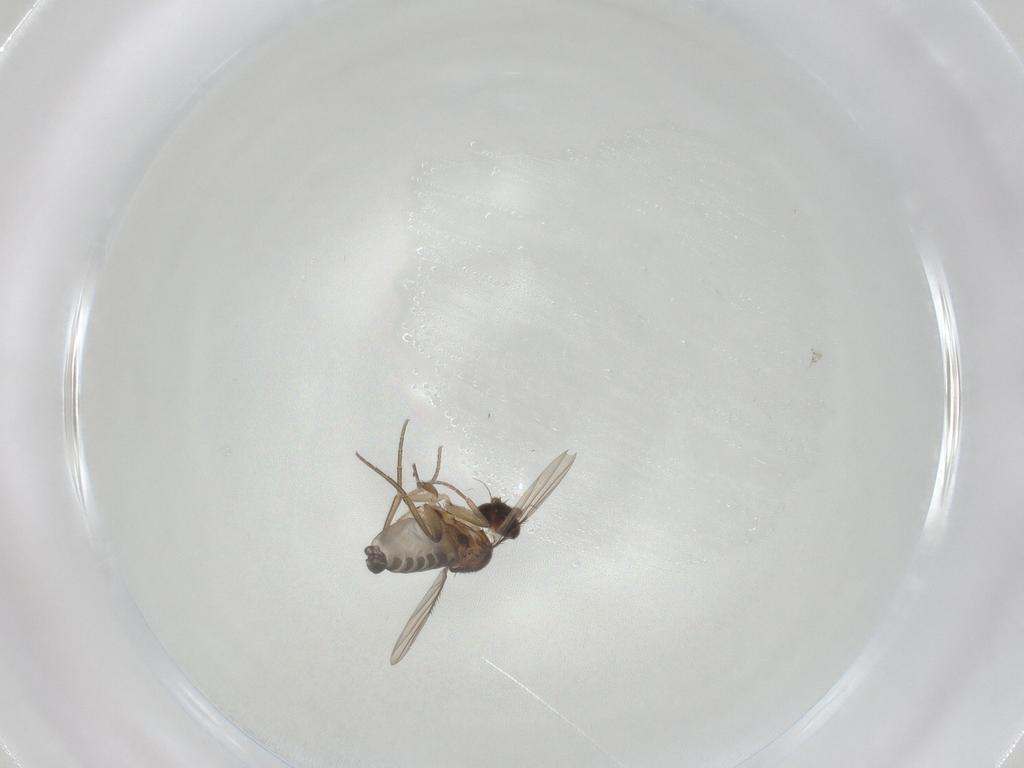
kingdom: Animalia
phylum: Arthropoda
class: Insecta
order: Diptera
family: Phoridae
